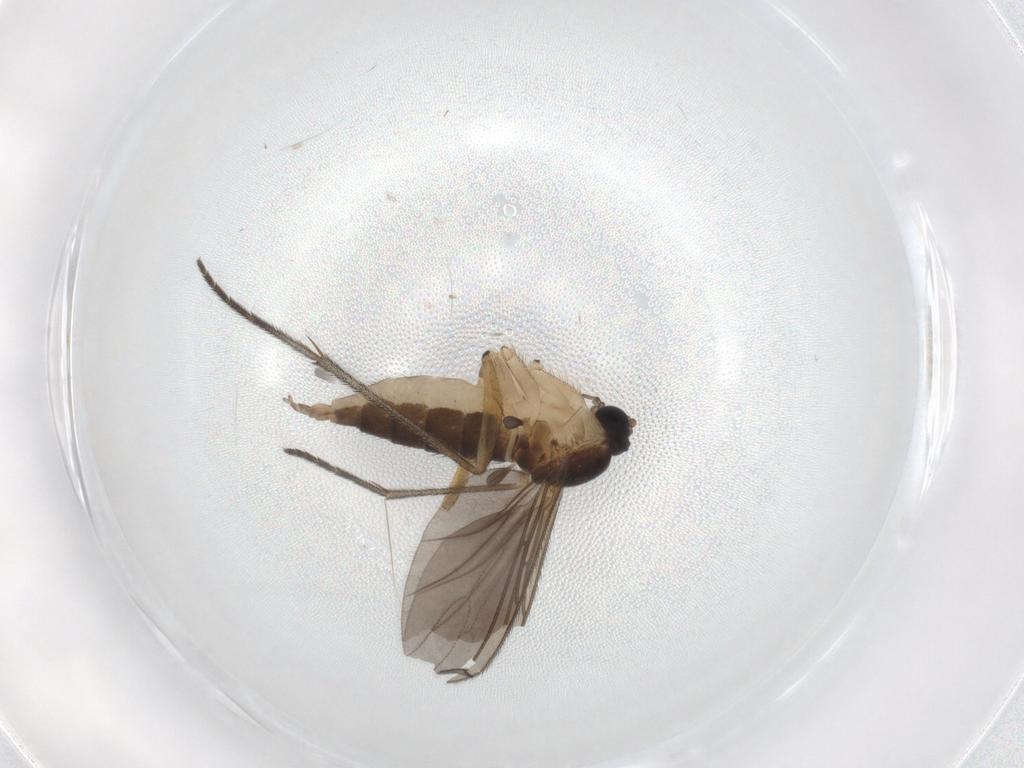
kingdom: Animalia
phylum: Arthropoda
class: Insecta
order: Diptera
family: Sciaridae
